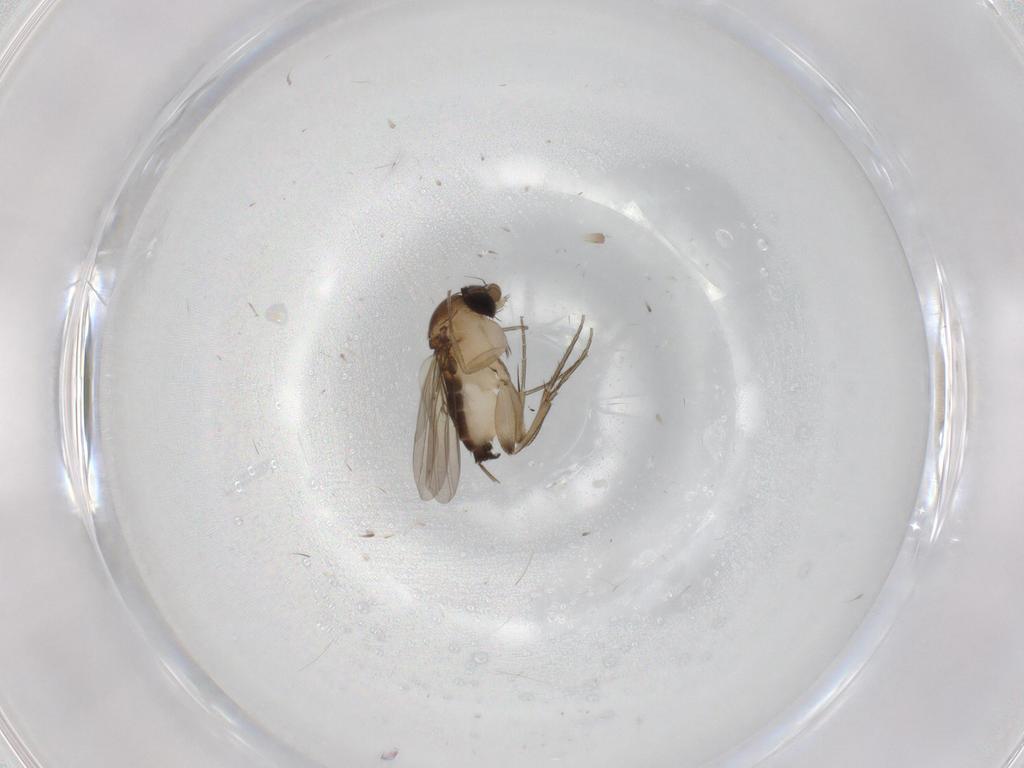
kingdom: Animalia
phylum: Arthropoda
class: Insecta
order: Diptera
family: Phoridae
